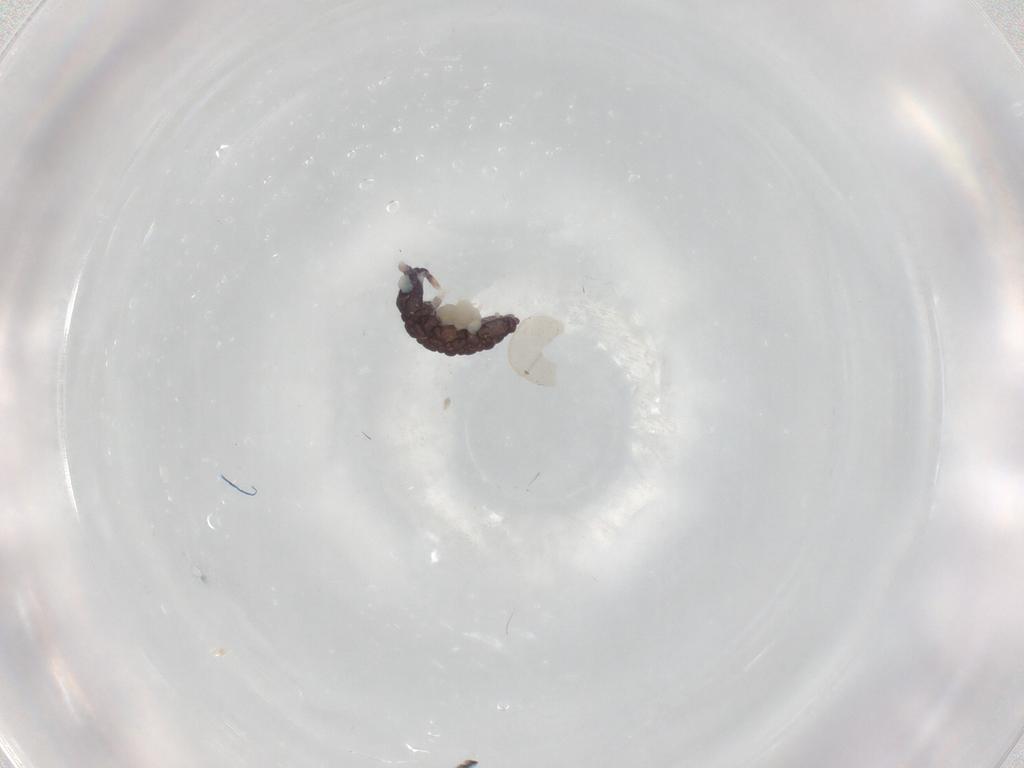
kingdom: Animalia
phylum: Arthropoda
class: Collembola
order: Poduromorpha
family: Neanuridae
